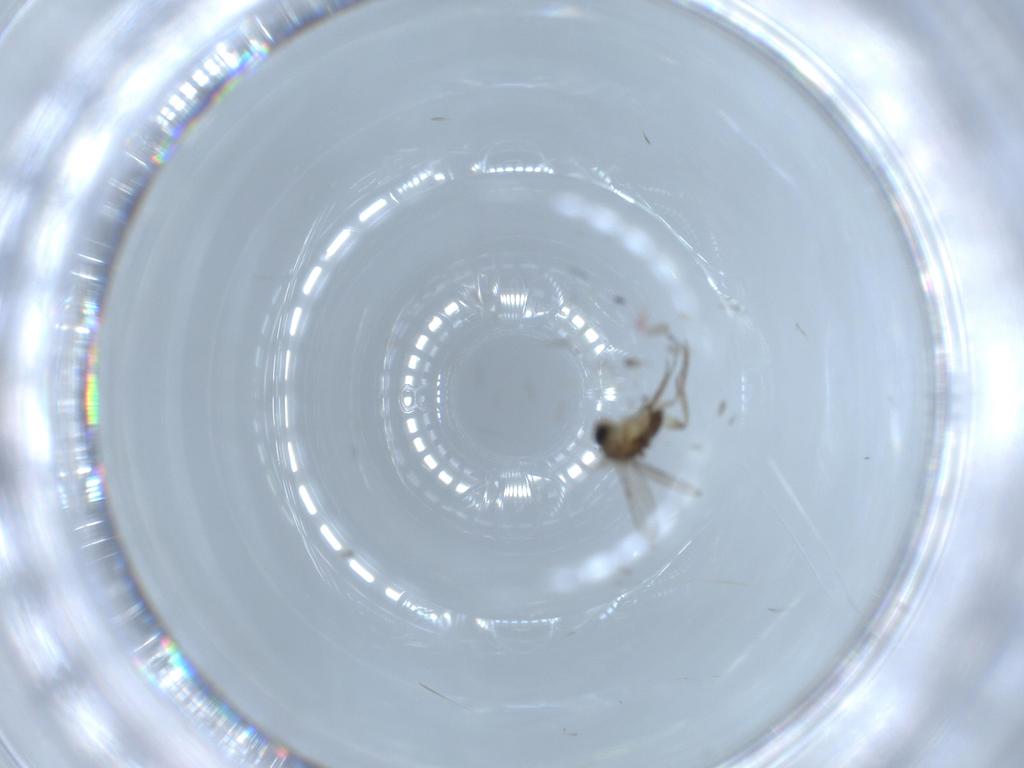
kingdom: Animalia
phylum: Arthropoda
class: Insecta
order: Diptera
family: Phoridae
